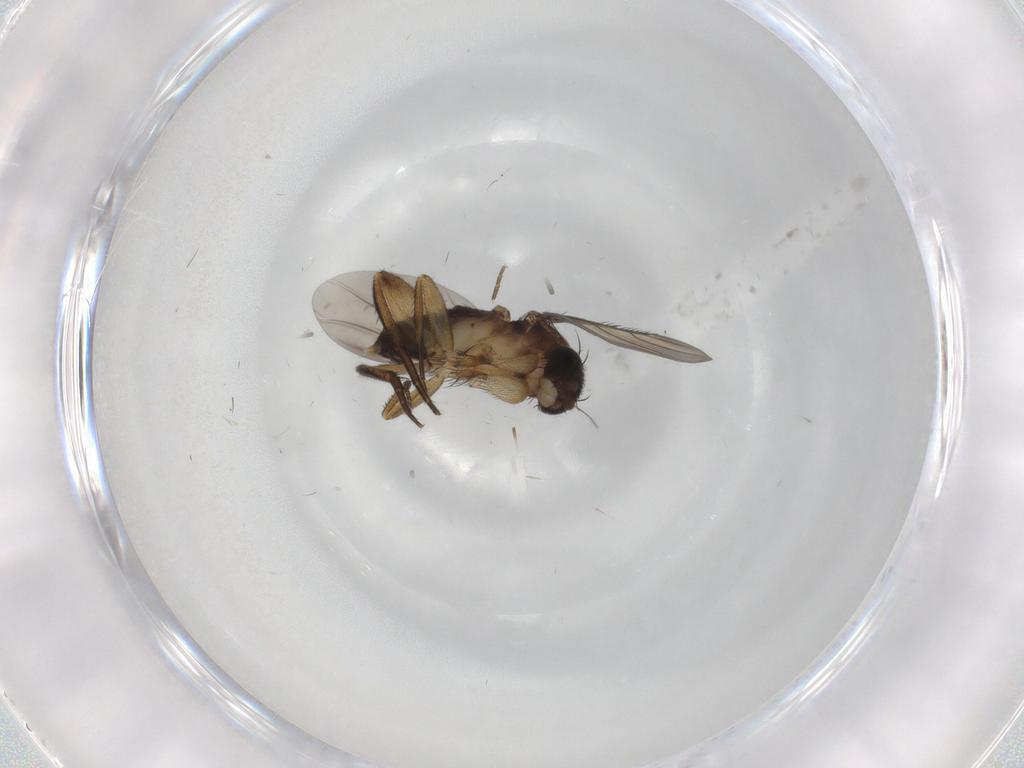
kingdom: Animalia
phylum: Arthropoda
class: Insecta
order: Diptera
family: Phoridae
